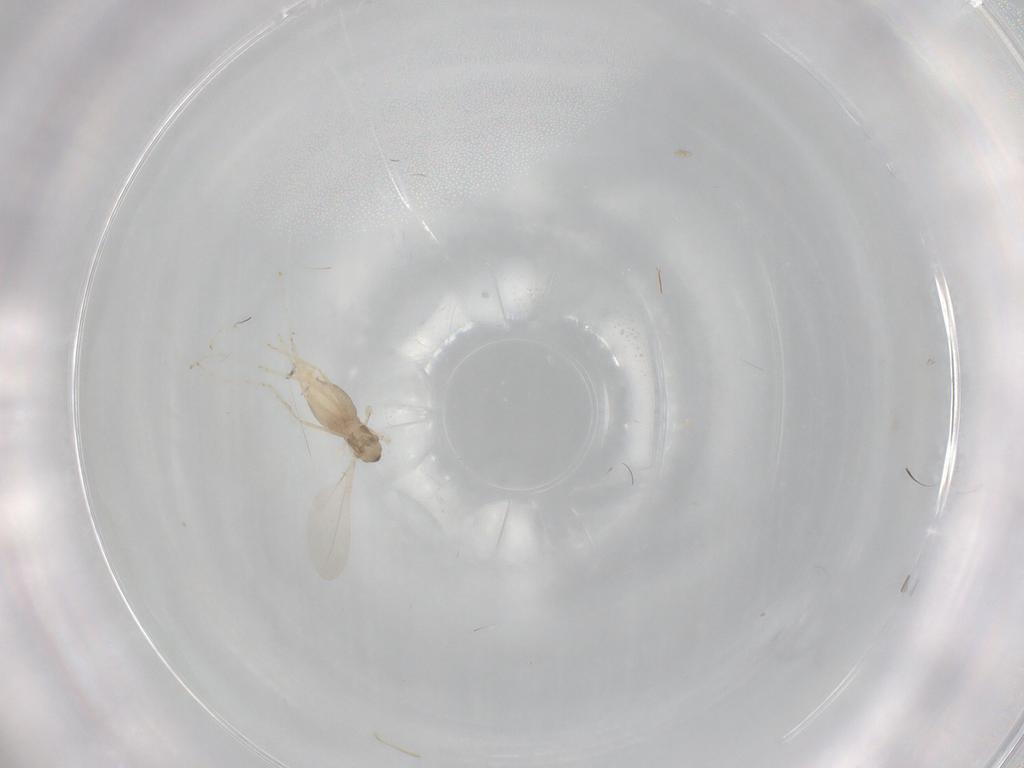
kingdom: Animalia
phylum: Arthropoda
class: Insecta
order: Diptera
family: Cecidomyiidae
